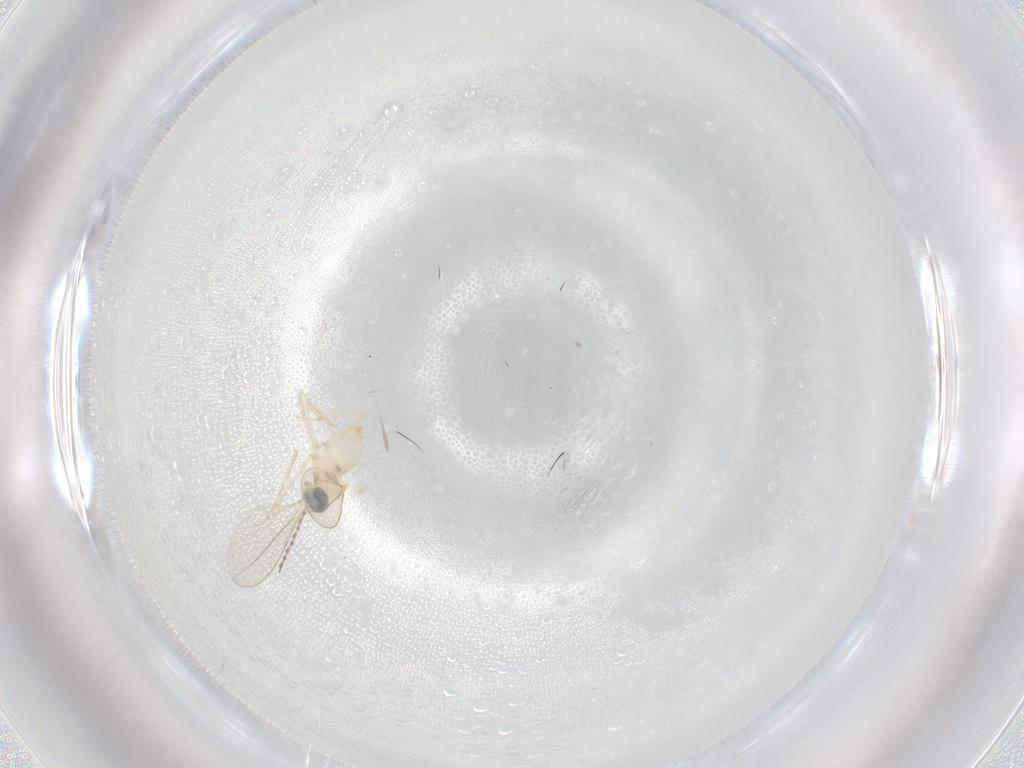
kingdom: Animalia
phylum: Arthropoda
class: Insecta
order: Diptera
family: Cecidomyiidae
